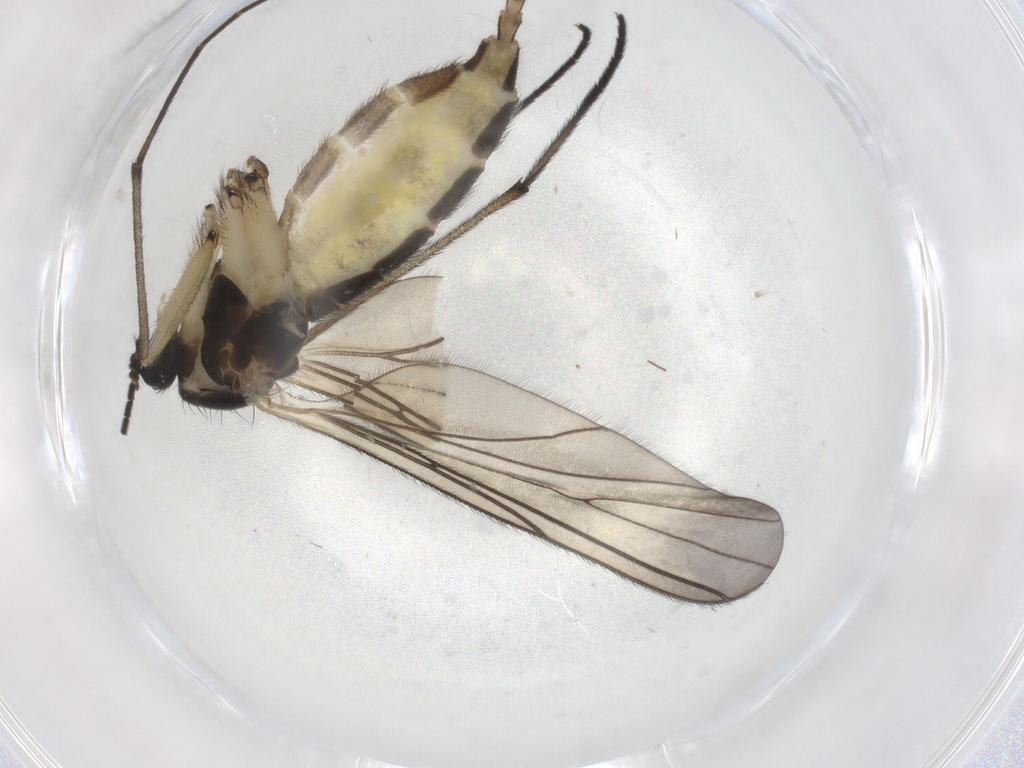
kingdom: Animalia
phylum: Arthropoda
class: Insecta
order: Diptera
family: Sciaridae
